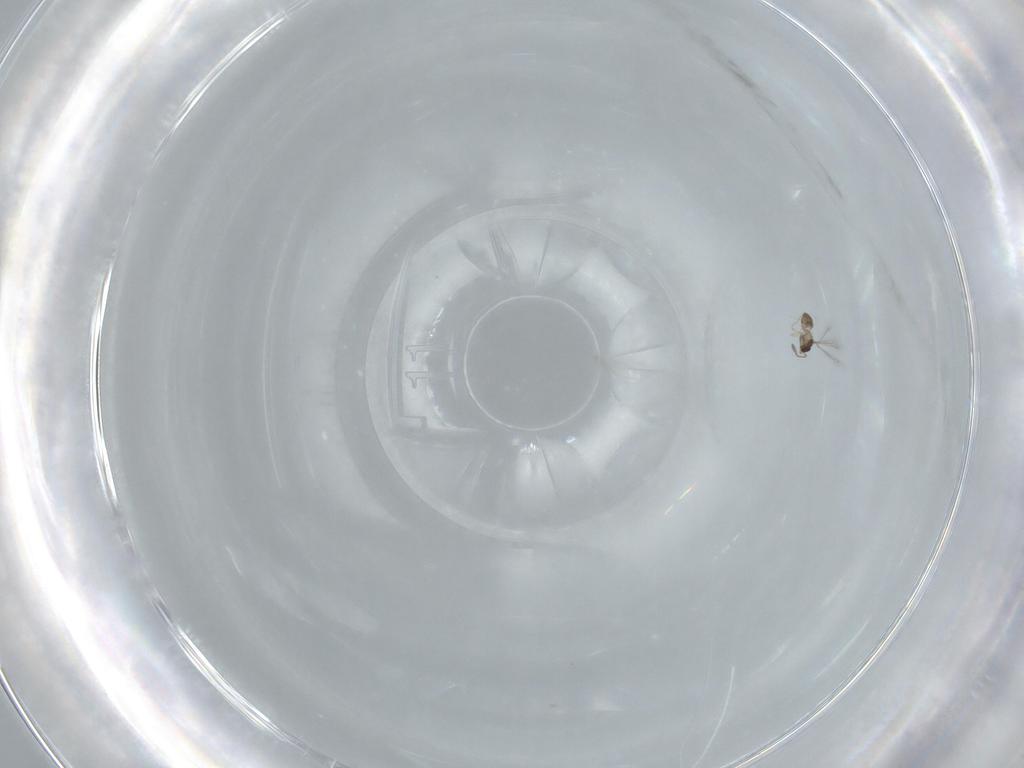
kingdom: Animalia
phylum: Arthropoda
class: Insecta
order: Hymenoptera
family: Mymaridae
